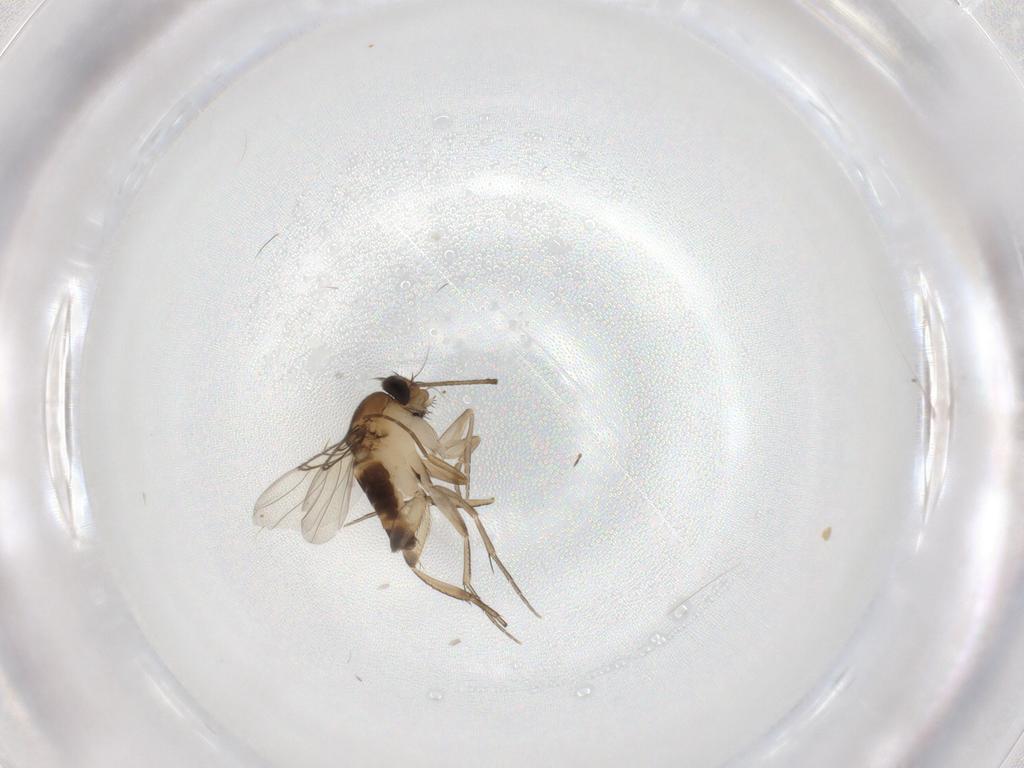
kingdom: Animalia
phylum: Arthropoda
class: Insecta
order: Diptera
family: Phoridae
